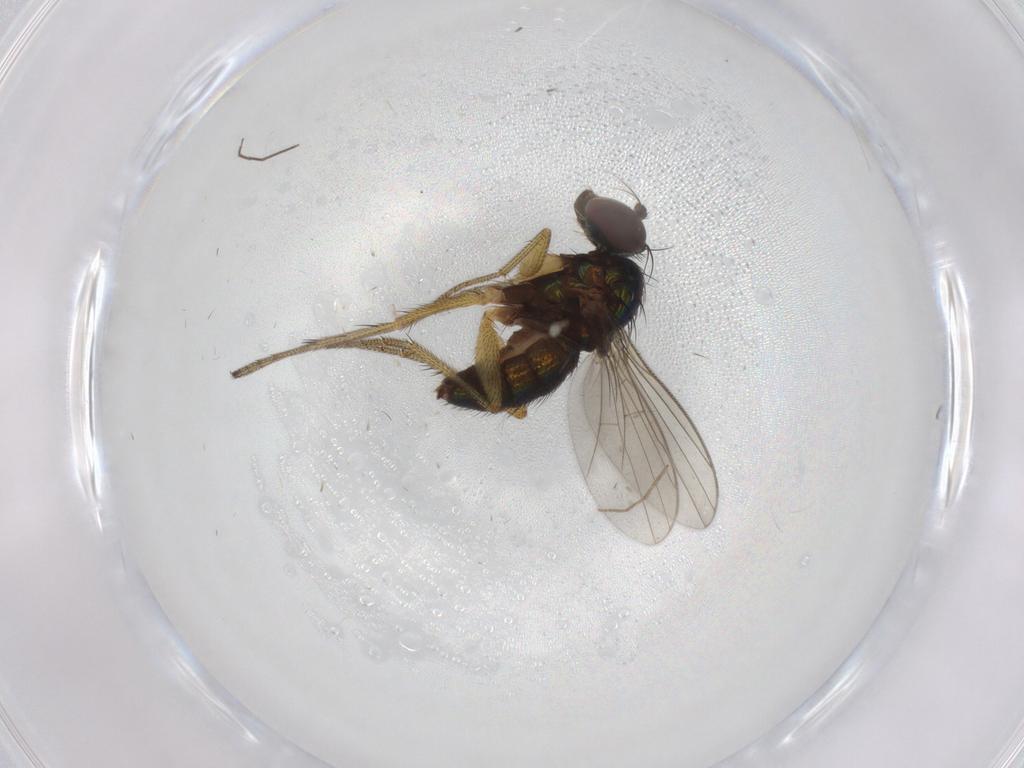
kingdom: Animalia
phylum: Arthropoda
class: Insecta
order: Diptera
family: Dolichopodidae
